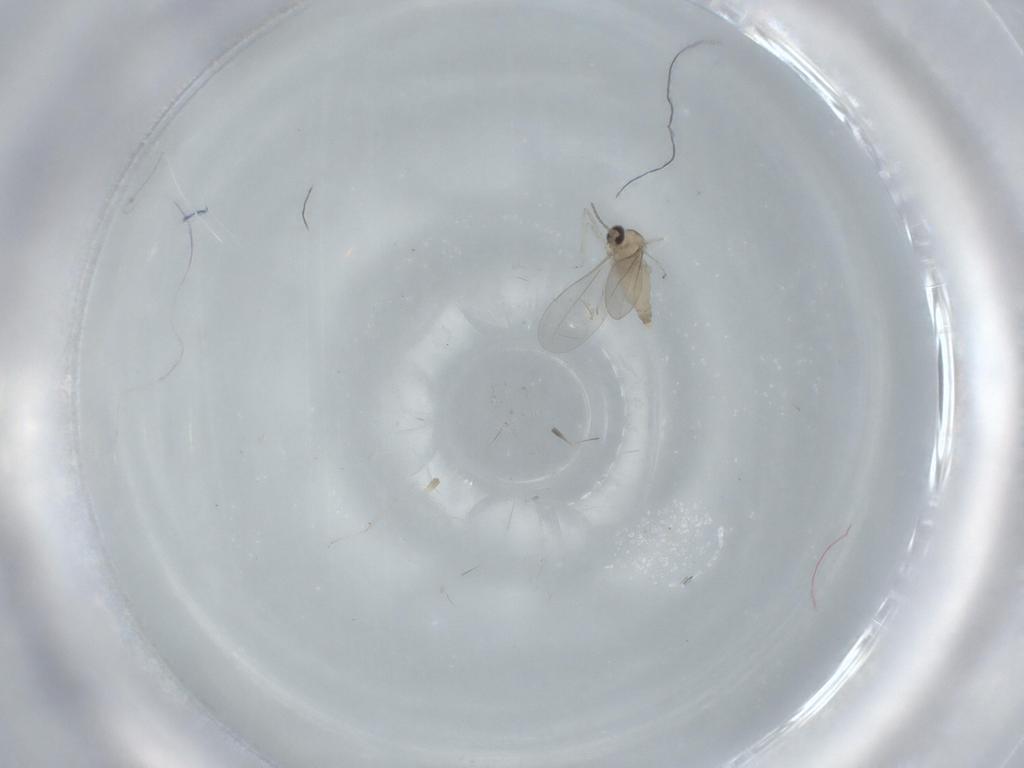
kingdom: Animalia
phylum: Arthropoda
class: Insecta
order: Diptera
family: Cecidomyiidae
